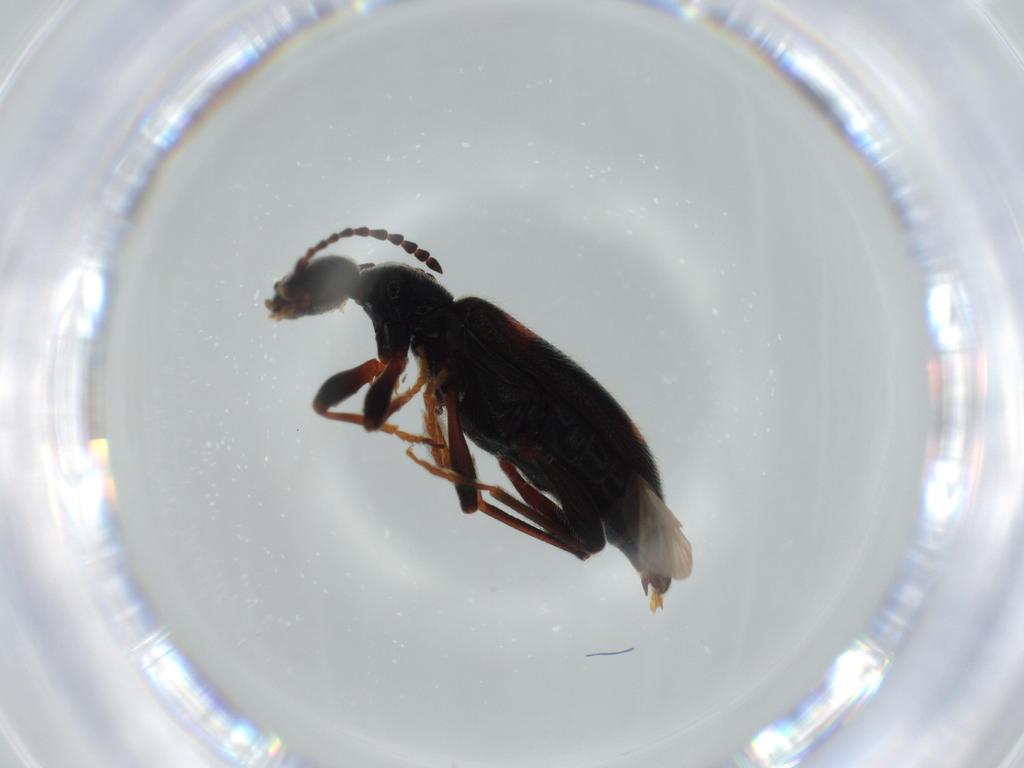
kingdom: Animalia
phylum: Arthropoda
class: Insecta
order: Coleoptera
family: Anthicidae
